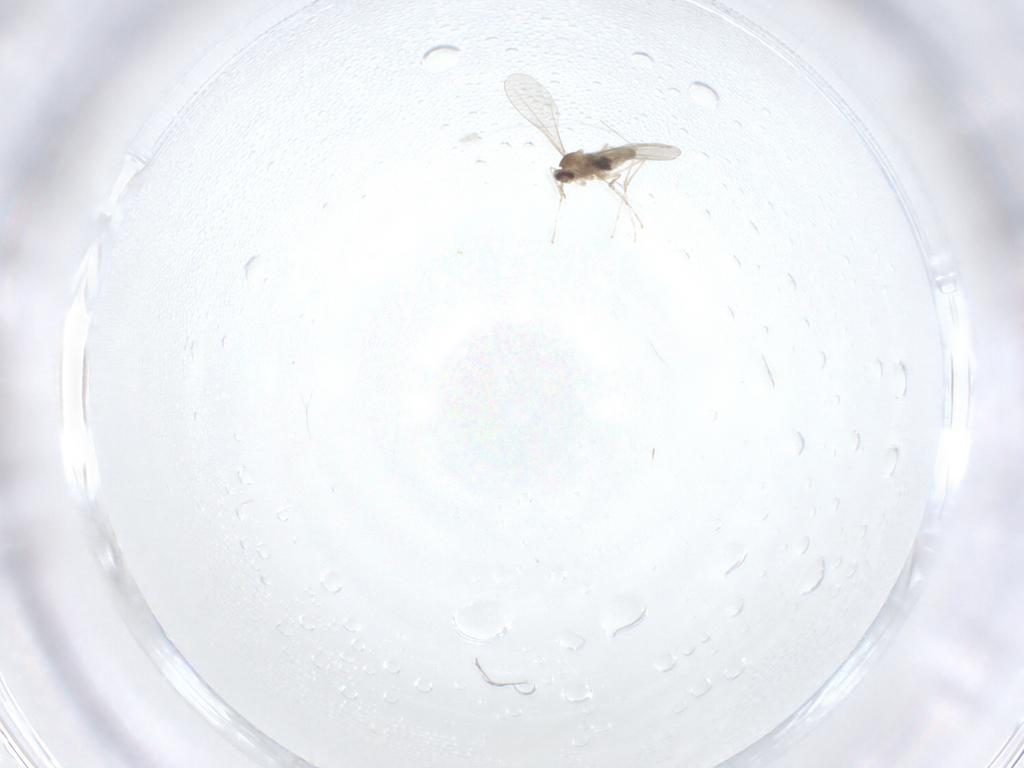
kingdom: Animalia
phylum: Arthropoda
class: Insecta
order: Diptera
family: Cecidomyiidae
